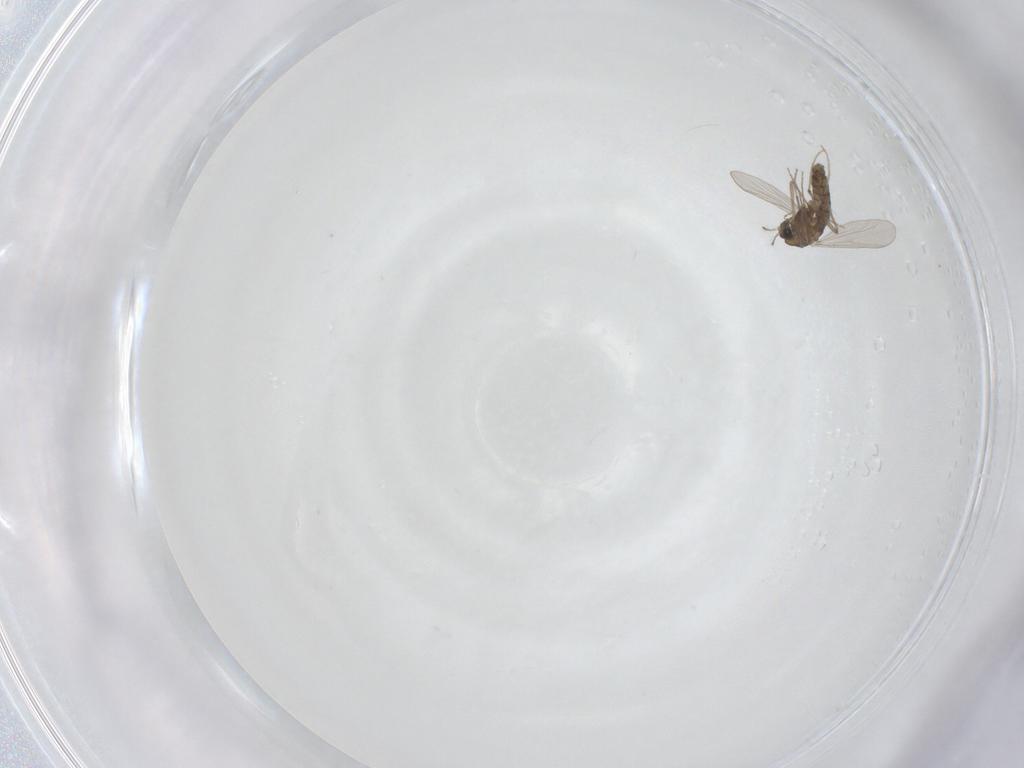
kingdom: Animalia
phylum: Arthropoda
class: Insecta
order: Diptera
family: Chironomidae
